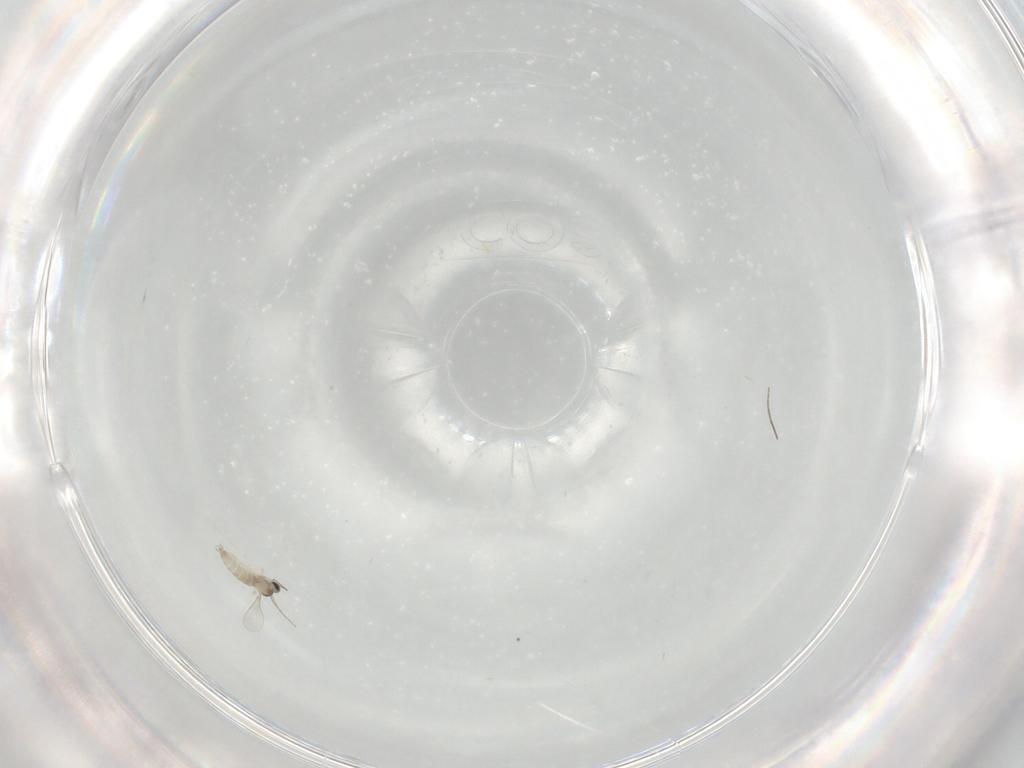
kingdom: Animalia
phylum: Arthropoda
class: Insecta
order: Diptera
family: Chironomidae
